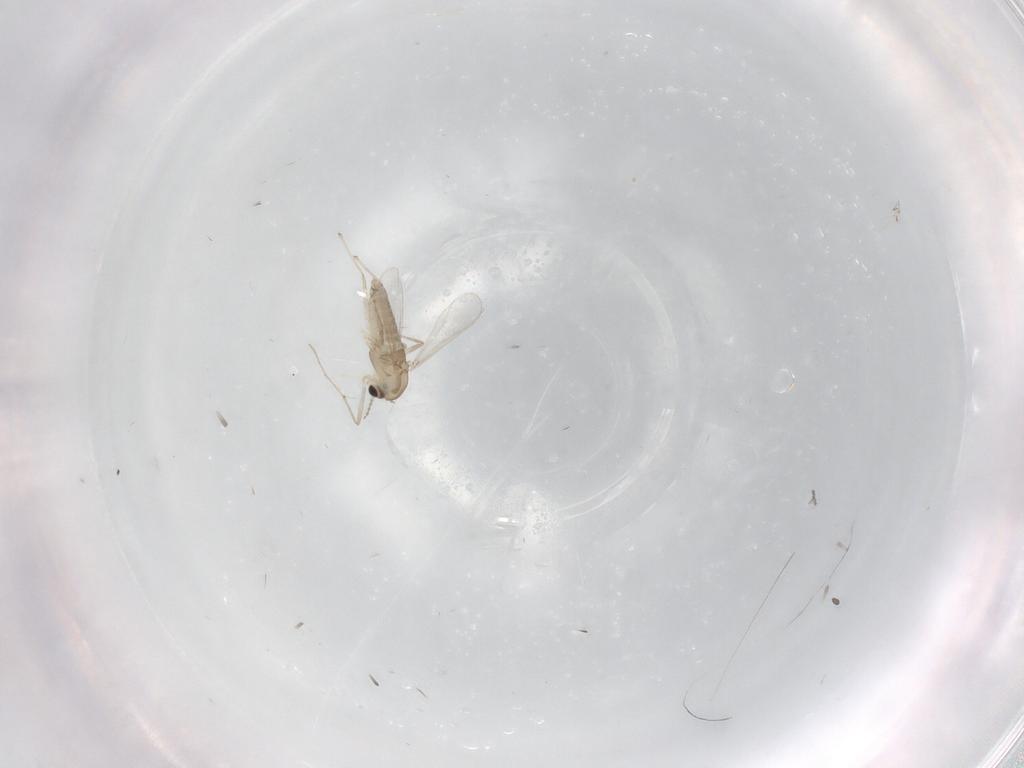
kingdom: Animalia
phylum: Arthropoda
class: Insecta
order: Diptera
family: Chironomidae
